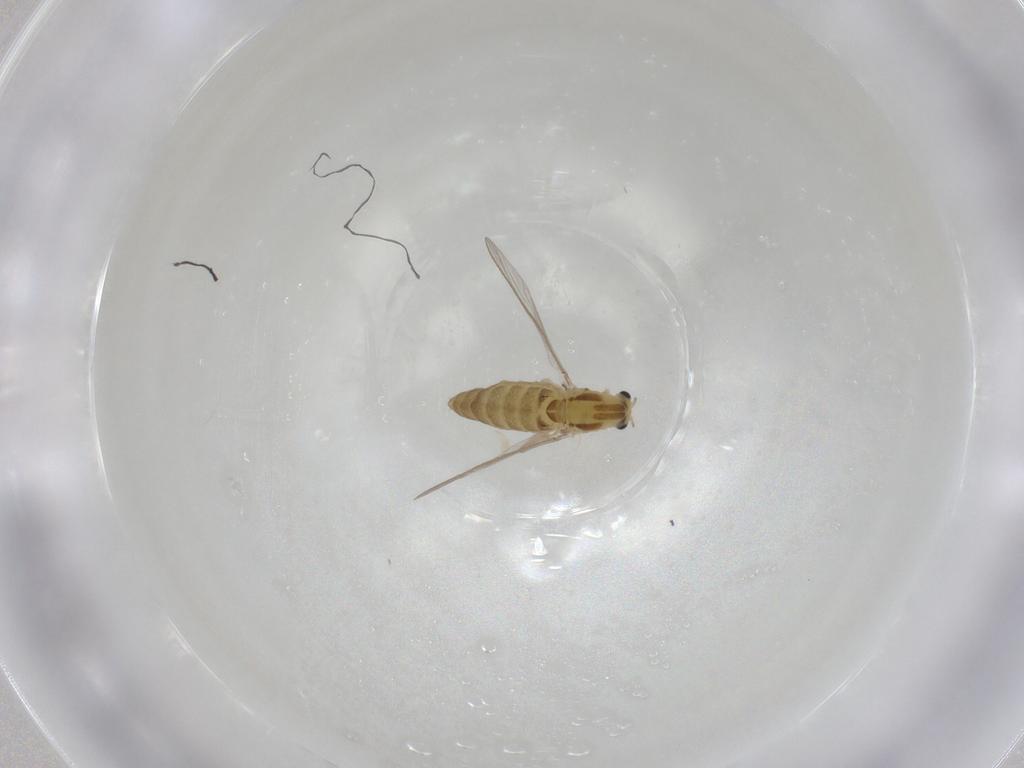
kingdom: Animalia
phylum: Arthropoda
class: Insecta
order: Diptera
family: Chironomidae
